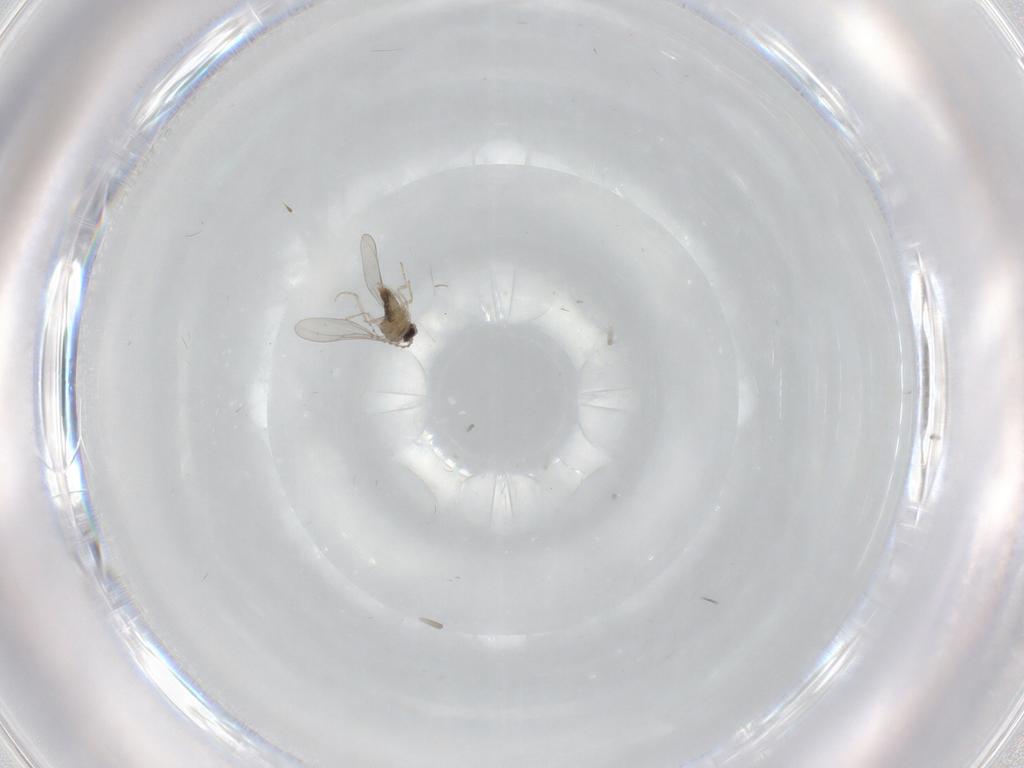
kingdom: Animalia
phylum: Arthropoda
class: Insecta
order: Diptera
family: Cecidomyiidae
